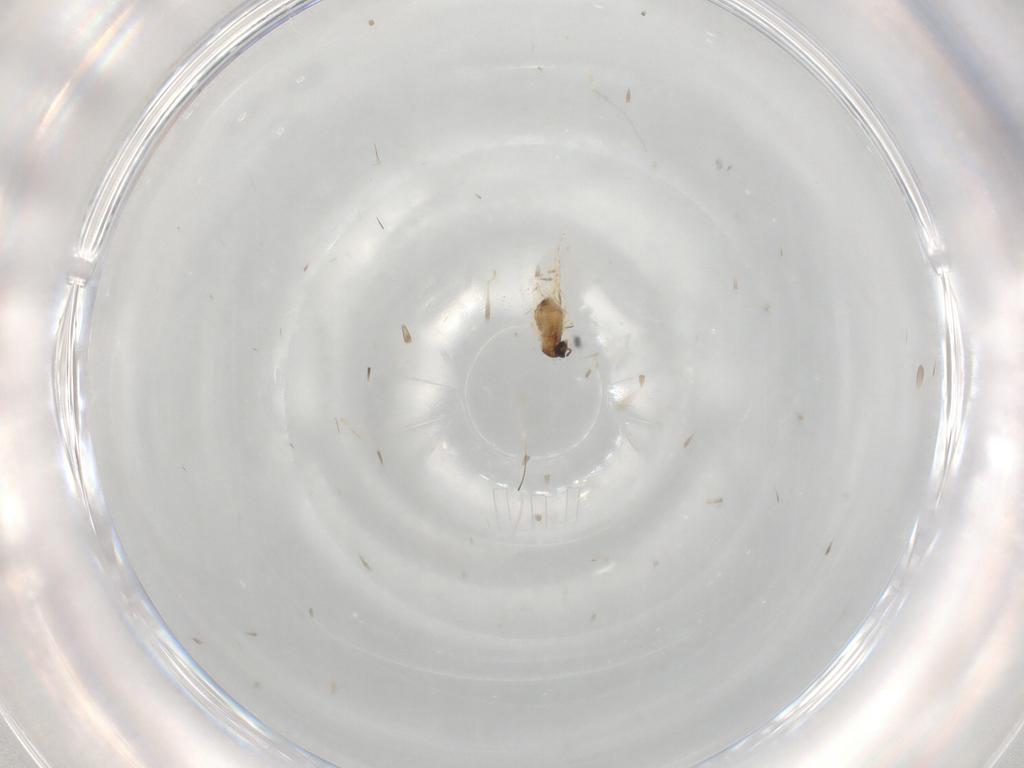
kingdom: Animalia
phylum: Arthropoda
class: Insecta
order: Diptera
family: Cecidomyiidae
